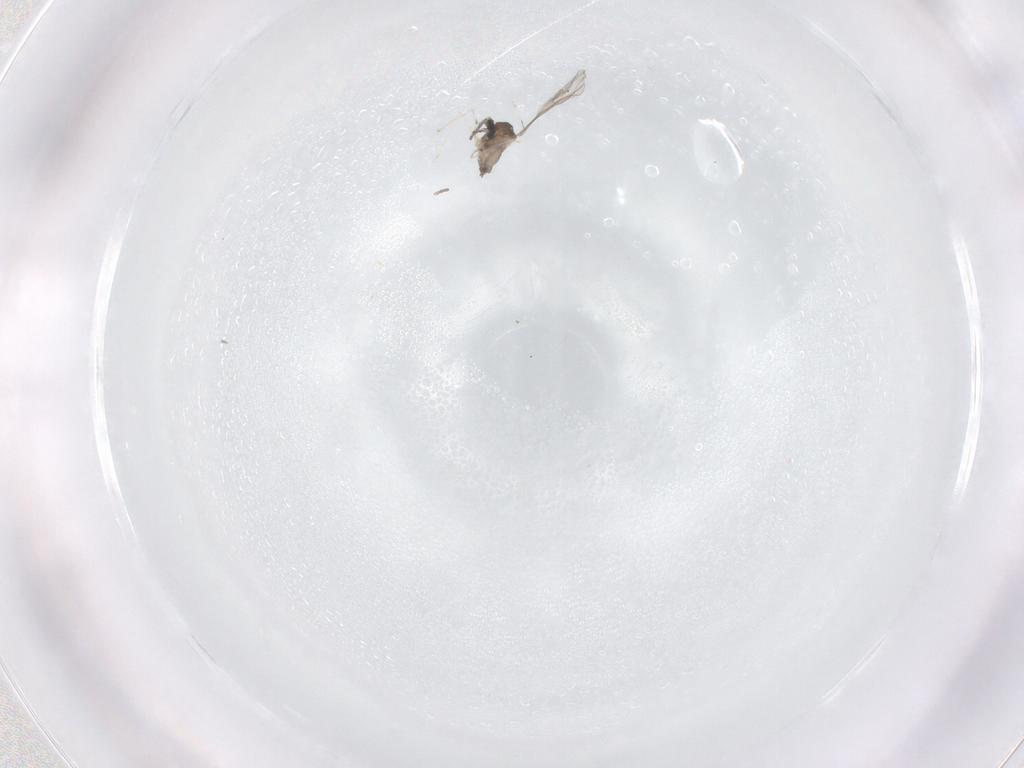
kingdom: Animalia
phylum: Arthropoda
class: Insecta
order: Diptera
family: Cecidomyiidae
